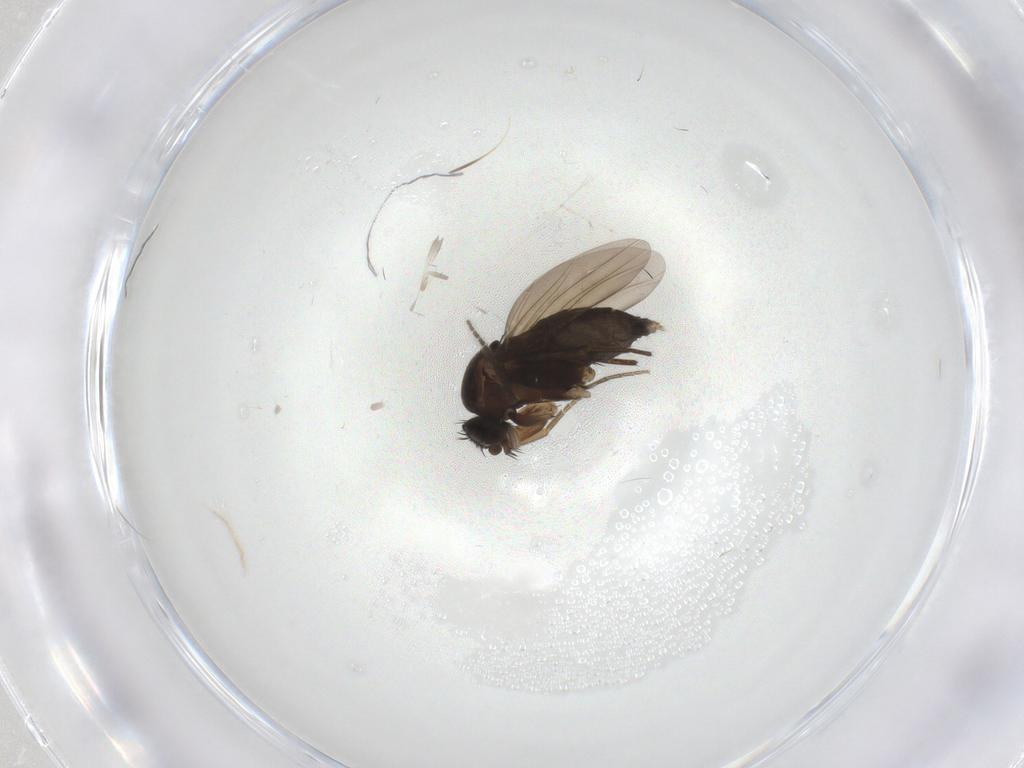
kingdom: Animalia
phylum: Arthropoda
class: Insecta
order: Diptera
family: Phoridae
